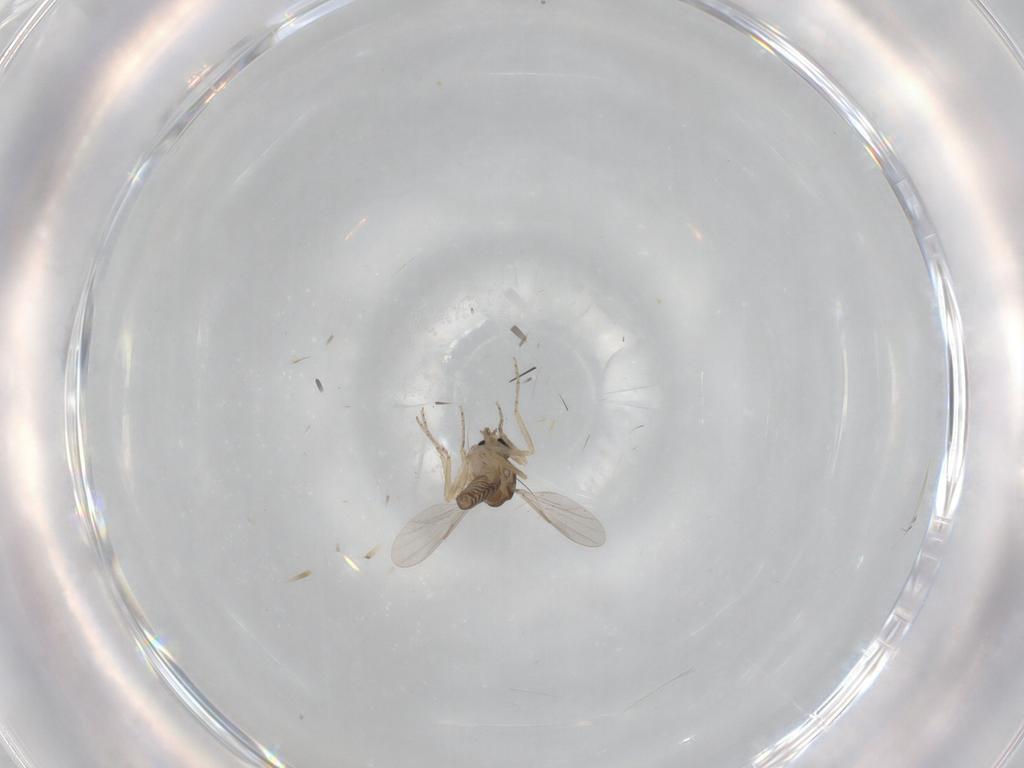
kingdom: Animalia
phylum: Arthropoda
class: Insecta
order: Diptera
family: Ceratopogonidae
